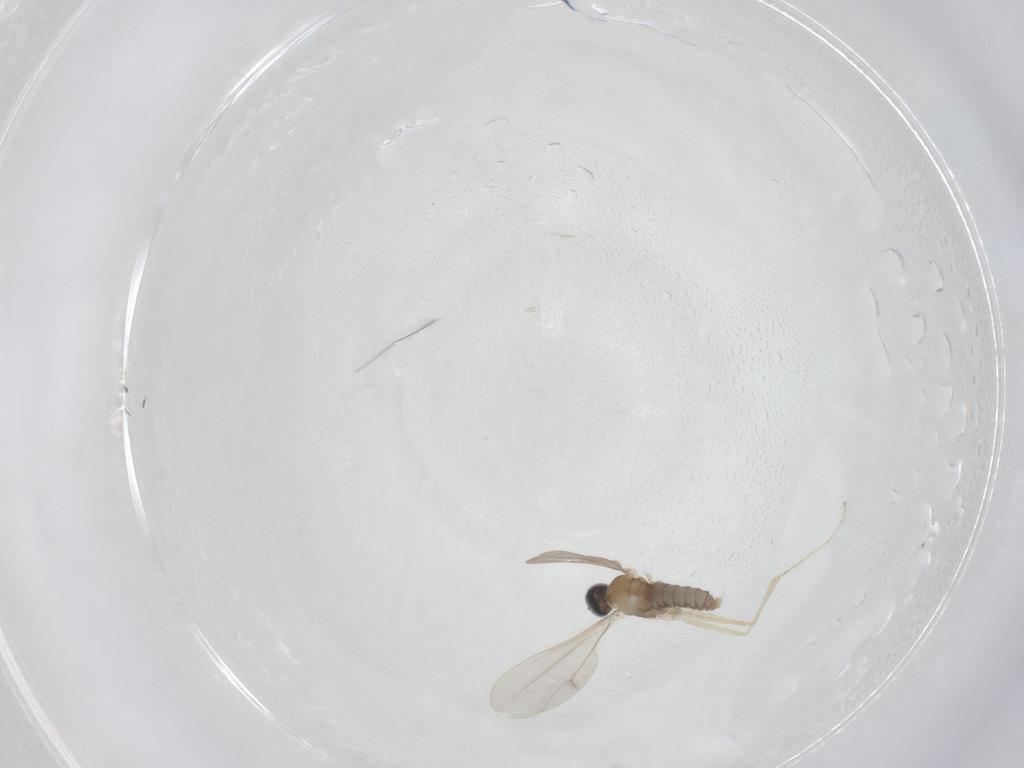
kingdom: Animalia
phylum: Arthropoda
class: Insecta
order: Diptera
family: Cecidomyiidae
